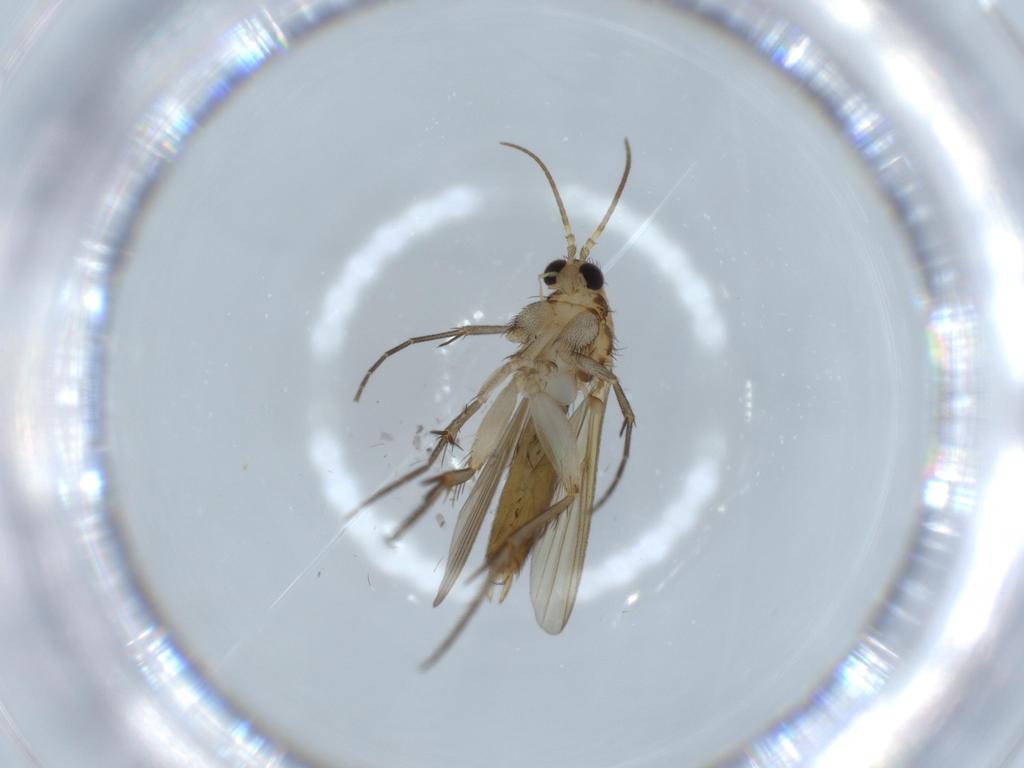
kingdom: Animalia
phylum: Arthropoda
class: Insecta
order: Diptera
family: Mycetophilidae
